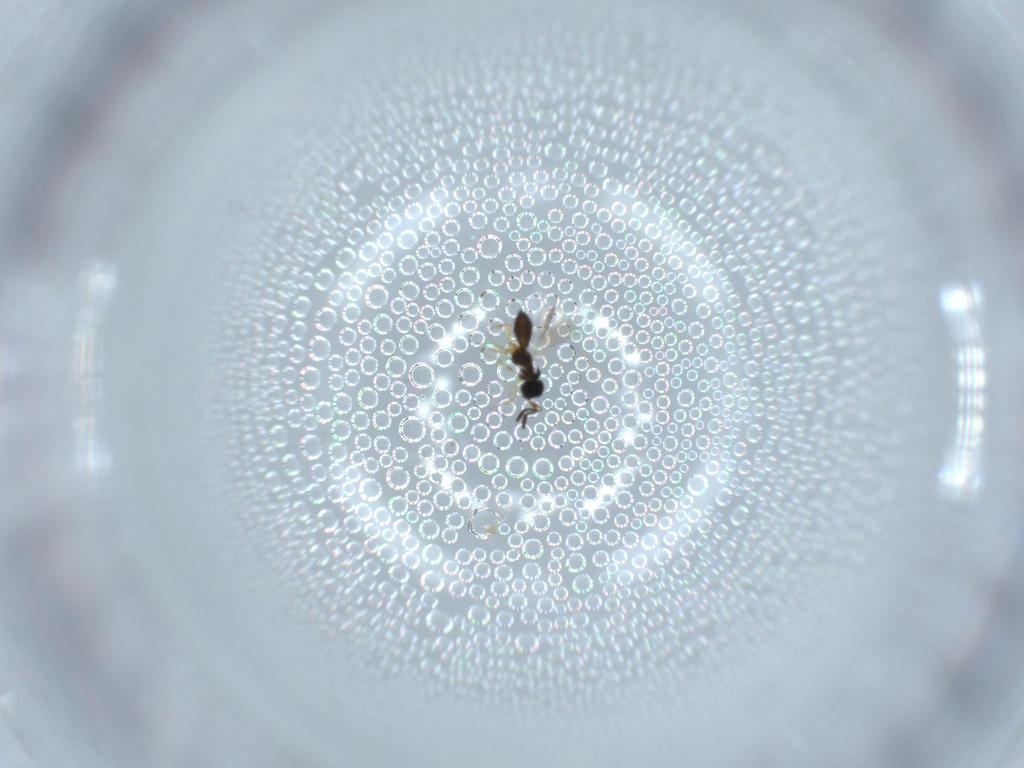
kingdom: Animalia
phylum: Arthropoda
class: Insecta
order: Hymenoptera
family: Scelionidae
